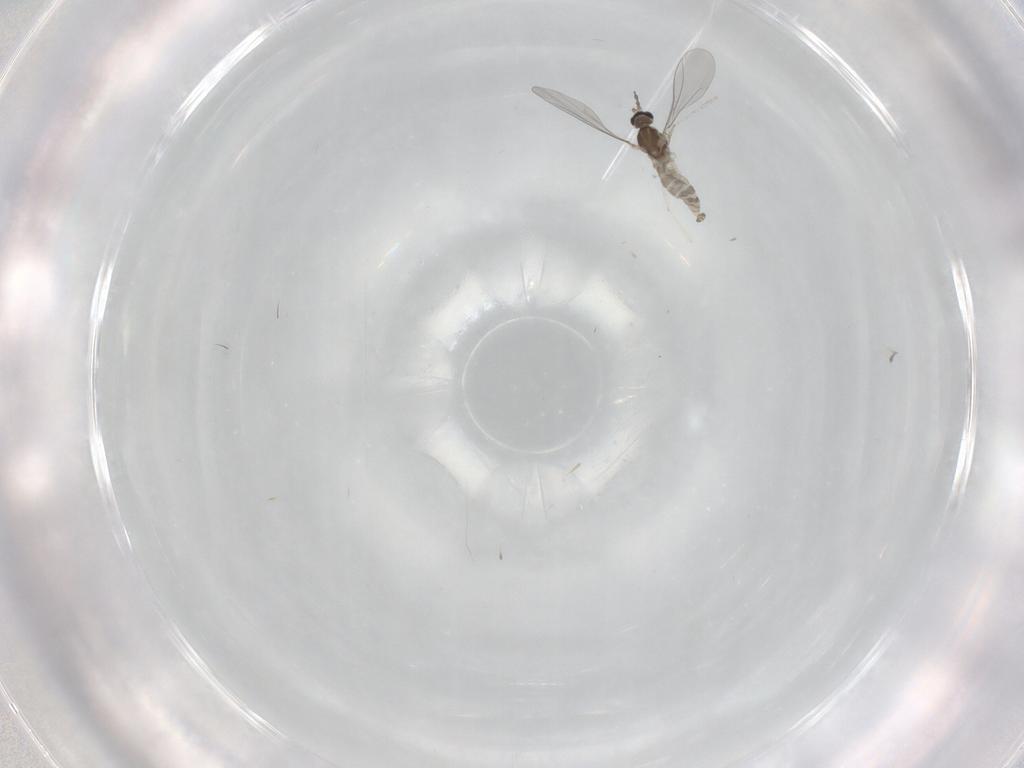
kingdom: Animalia
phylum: Arthropoda
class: Insecta
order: Diptera
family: Cecidomyiidae
